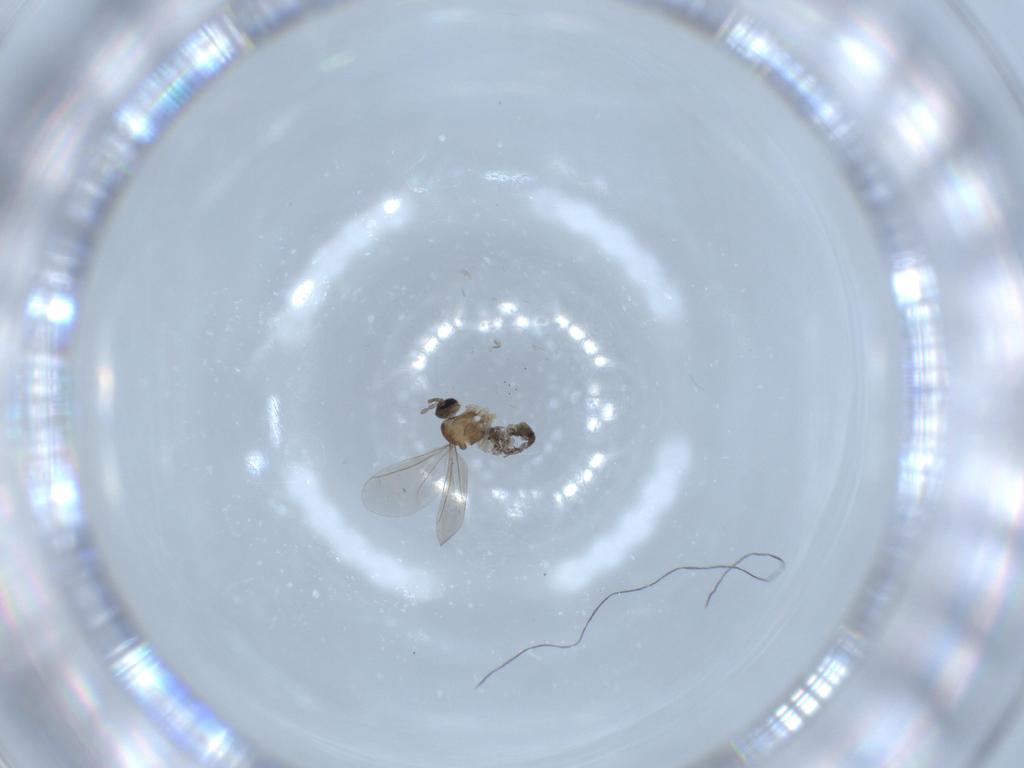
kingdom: Animalia
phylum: Arthropoda
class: Insecta
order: Diptera
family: Cecidomyiidae
